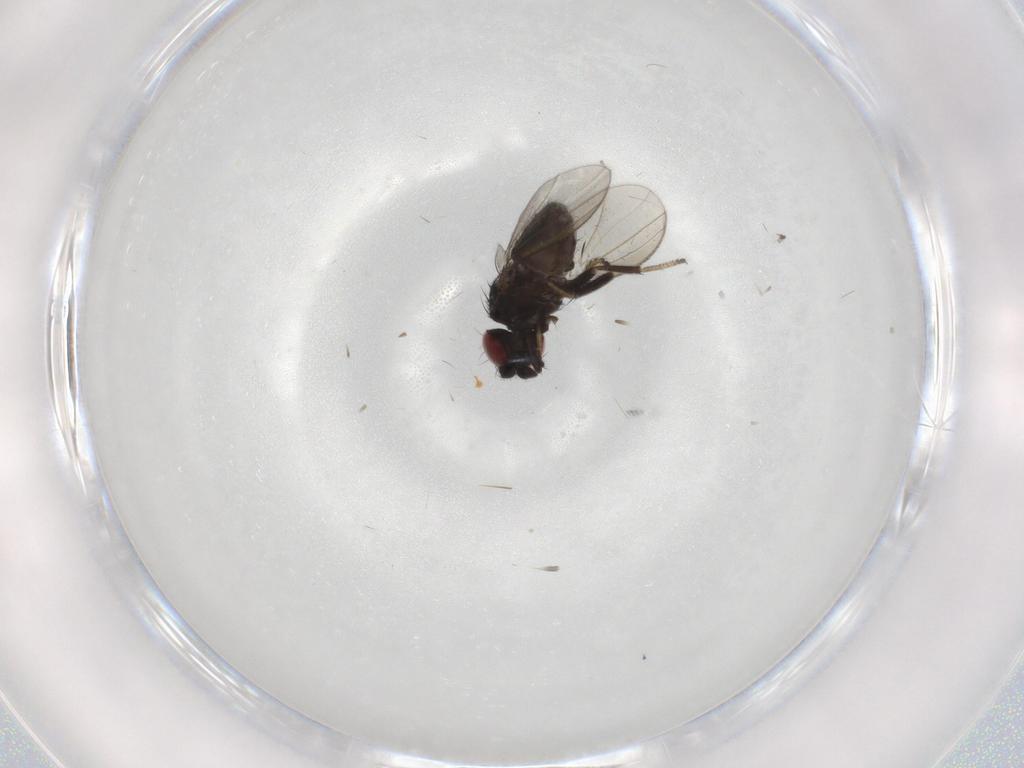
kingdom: Animalia
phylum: Arthropoda
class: Insecta
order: Diptera
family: Milichiidae
